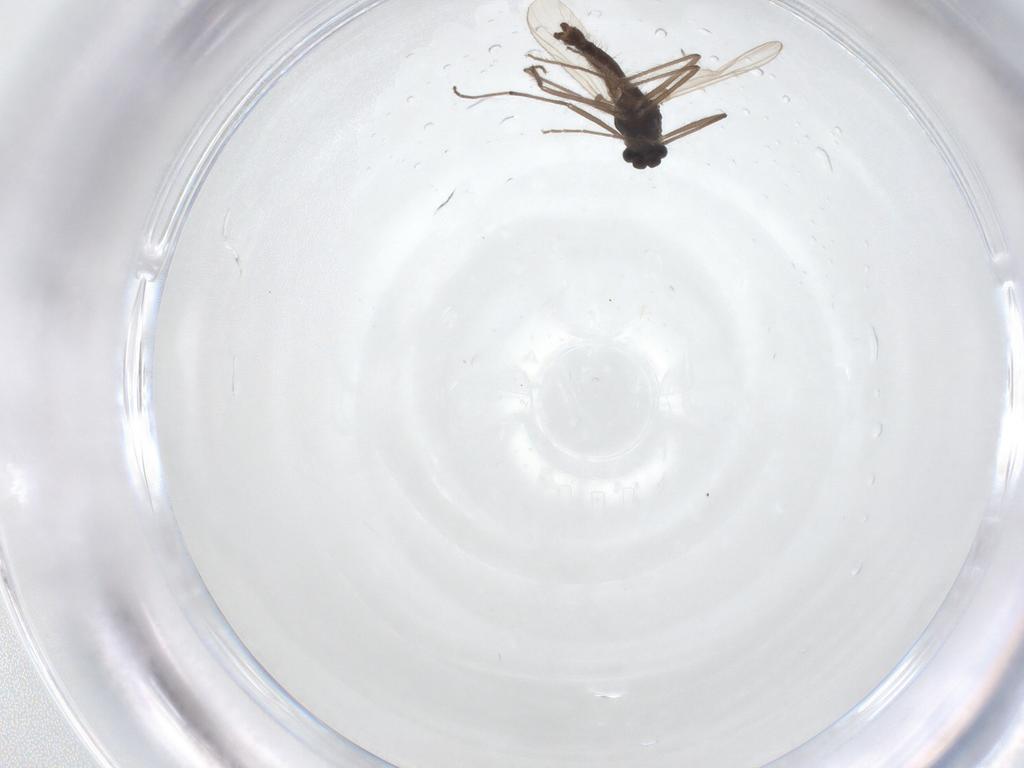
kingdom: Animalia
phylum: Arthropoda
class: Insecta
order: Diptera
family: Chironomidae
